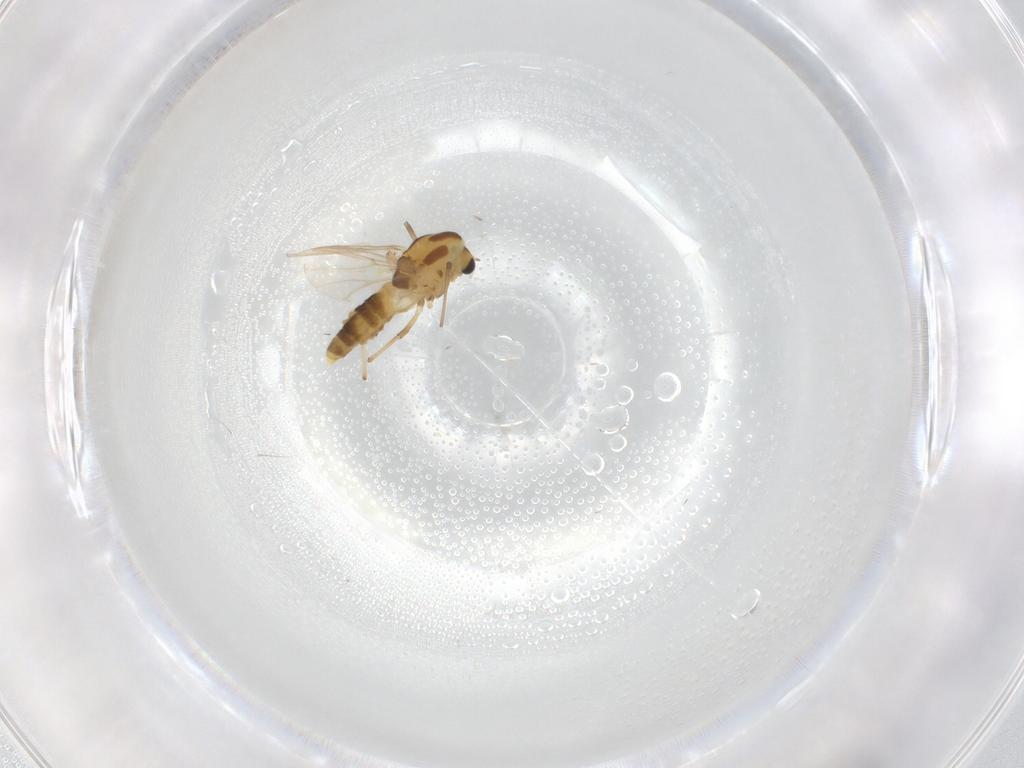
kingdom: Animalia
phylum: Arthropoda
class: Insecta
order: Diptera
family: Chironomidae
